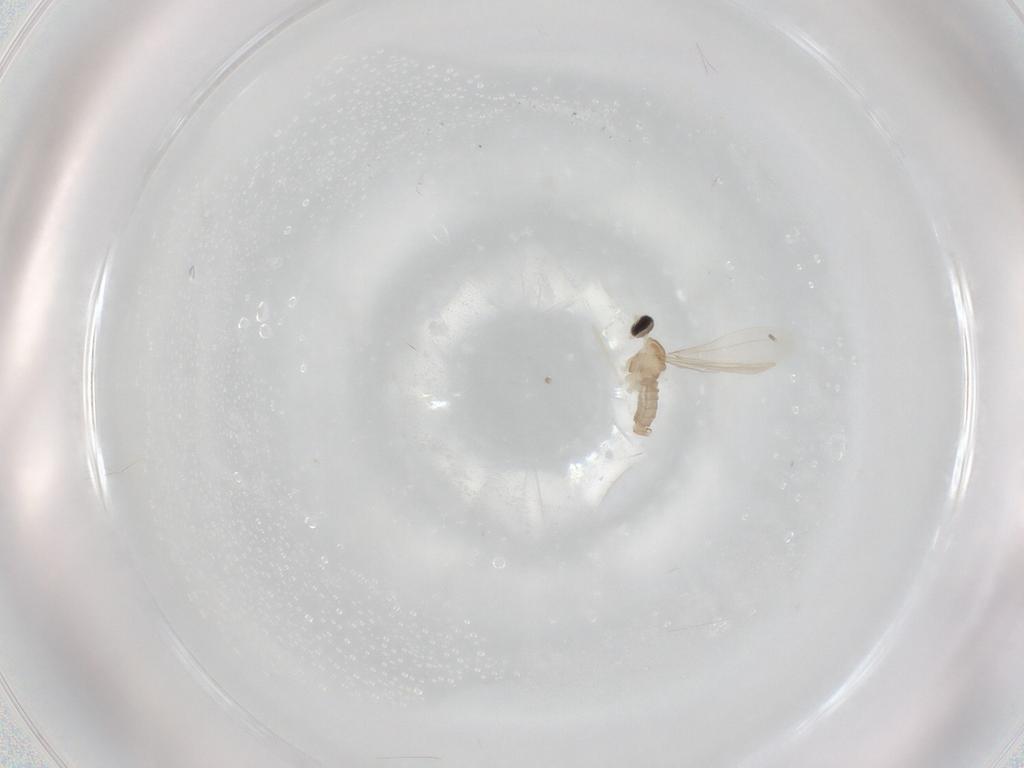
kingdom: Animalia
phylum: Arthropoda
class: Insecta
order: Diptera
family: Cecidomyiidae
